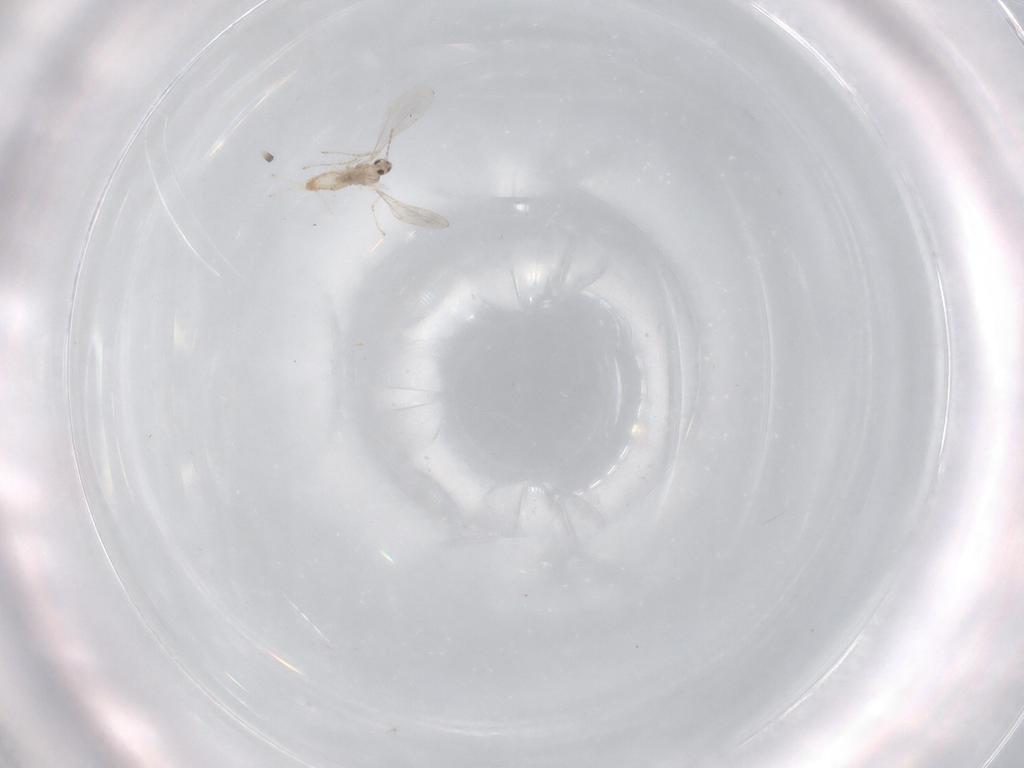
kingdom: Animalia
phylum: Arthropoda
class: Insecta
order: Diptera
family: Cecidomyiidae
